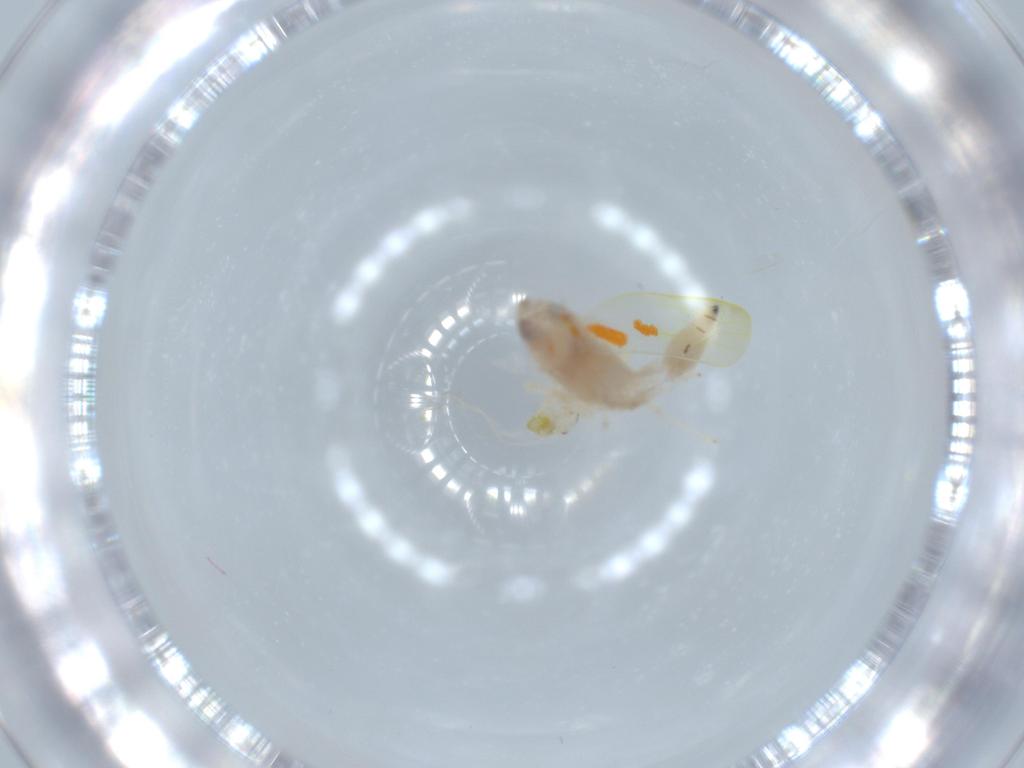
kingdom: Animalia
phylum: Arthropoda
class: Insecta
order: Hemiptera
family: Cicadellidae
